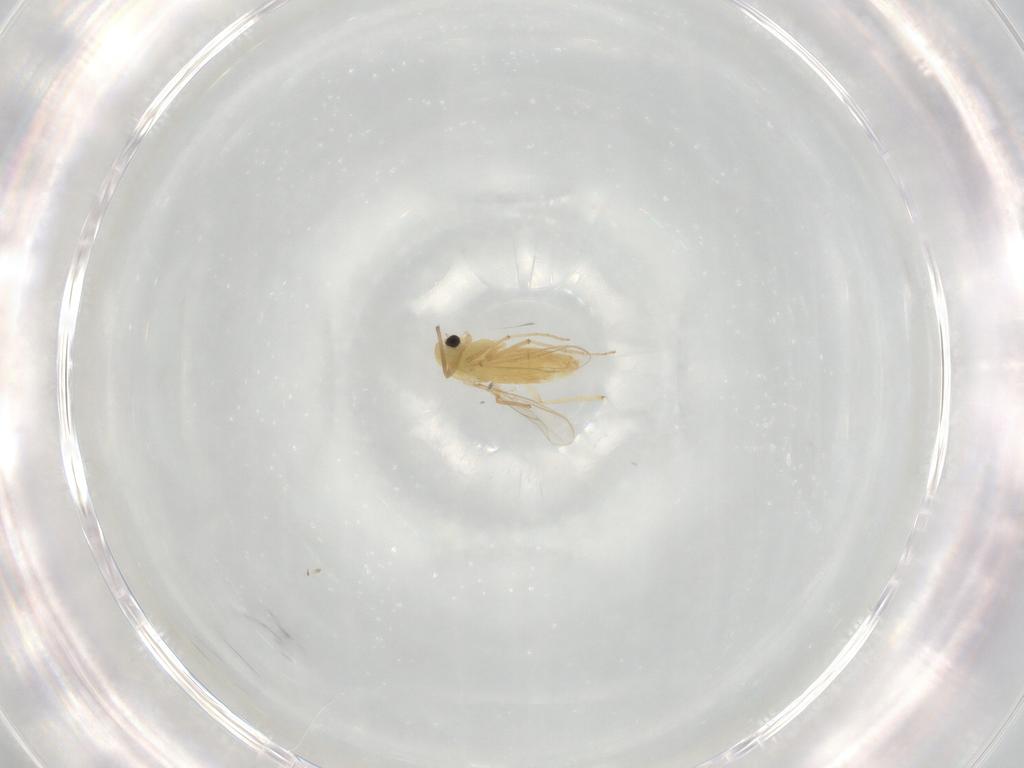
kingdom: Animalia
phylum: Arthropoda
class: Insecta
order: Diptera
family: Chironomidae
